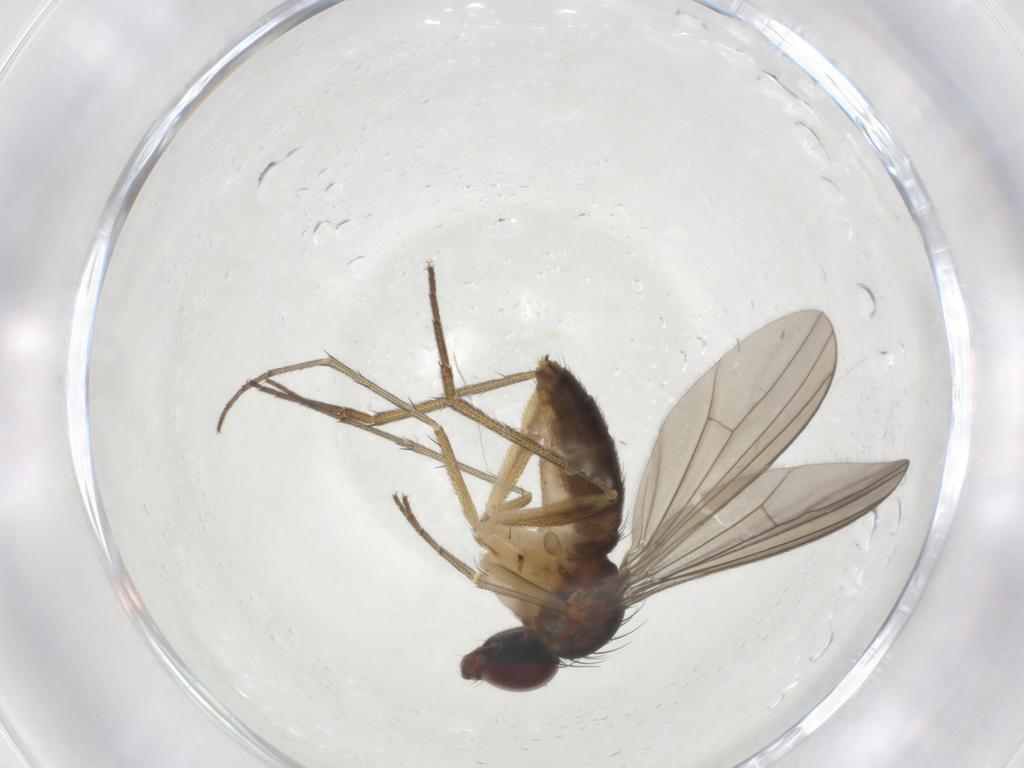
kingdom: Animalia
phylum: Arthropoda
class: Insecta
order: Diptera
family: Dolichopodidae
